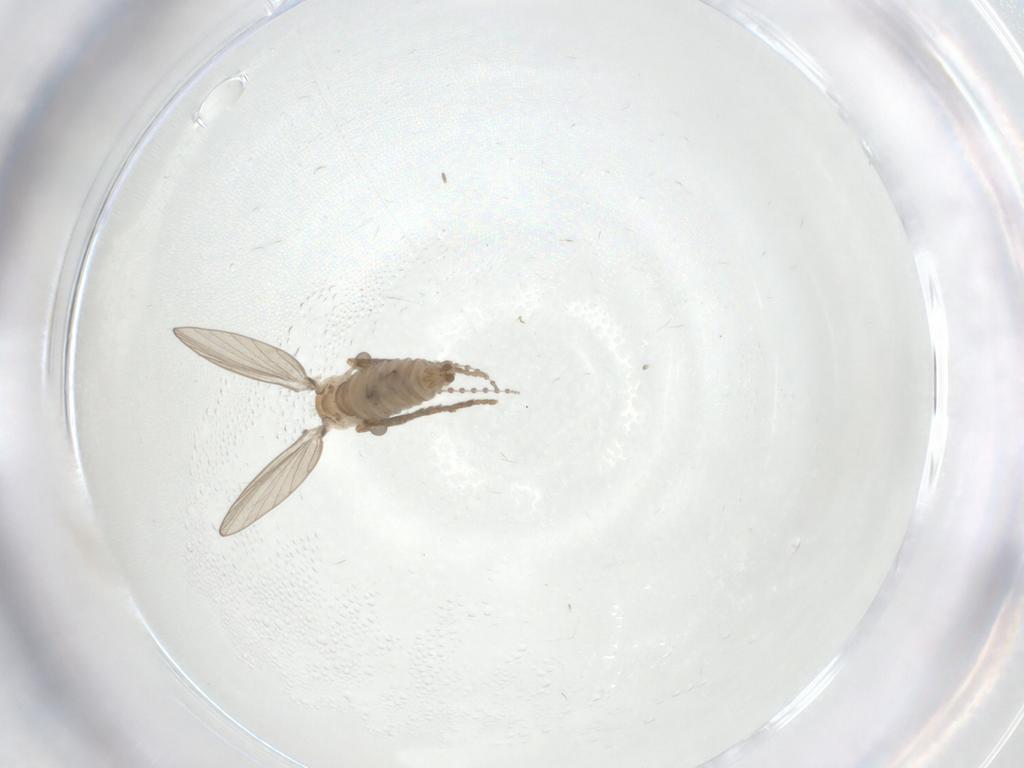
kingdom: Animalia
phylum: Arthropoda
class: Insecta
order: Diptera
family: Psychodidae
